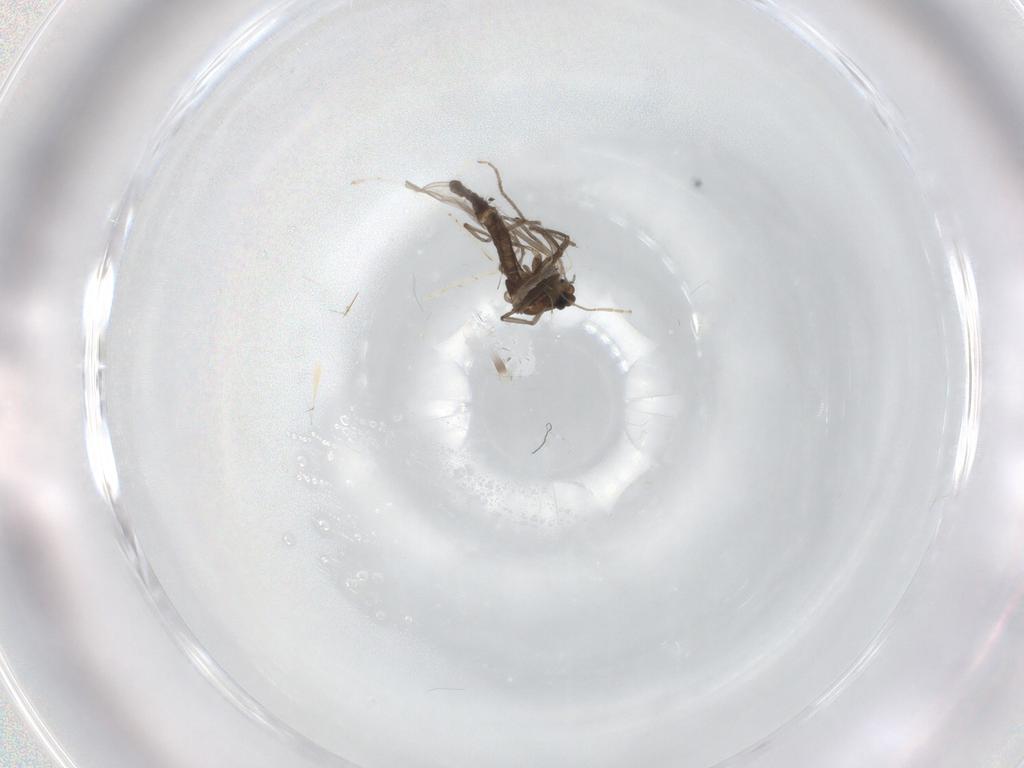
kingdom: Animalia
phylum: Arthropoda
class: Insecta
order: Diptera
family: Chironomidae
